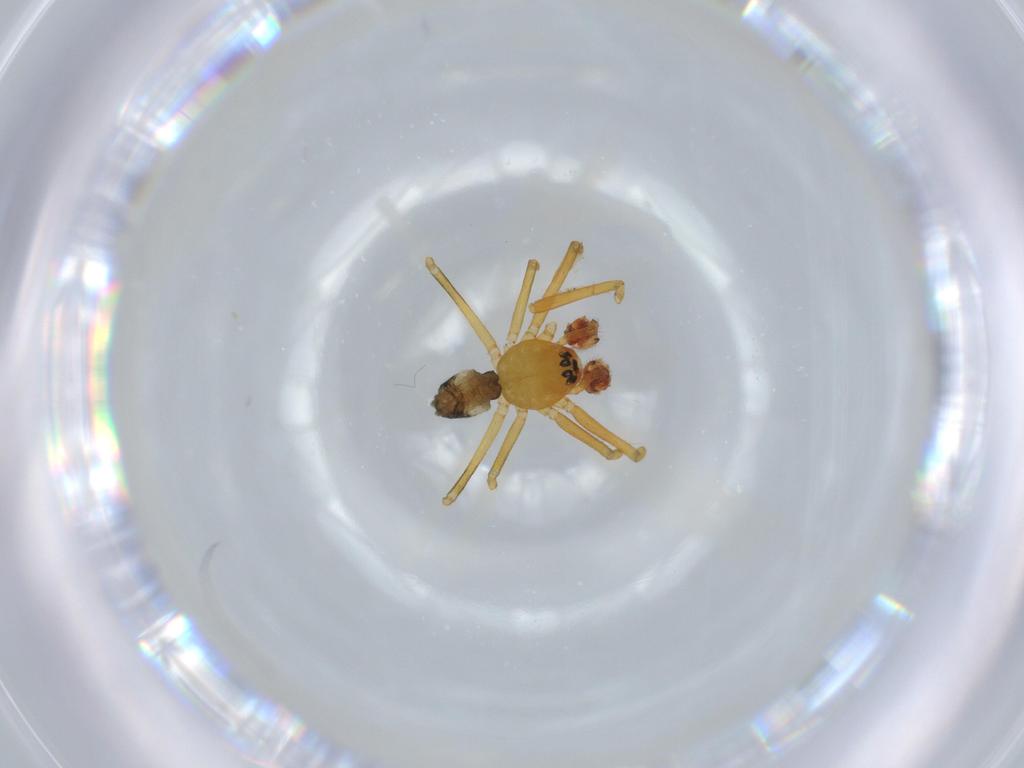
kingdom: Animalia
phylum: Arthropoda
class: Arachnida
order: Araneae
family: Linyphiidae
